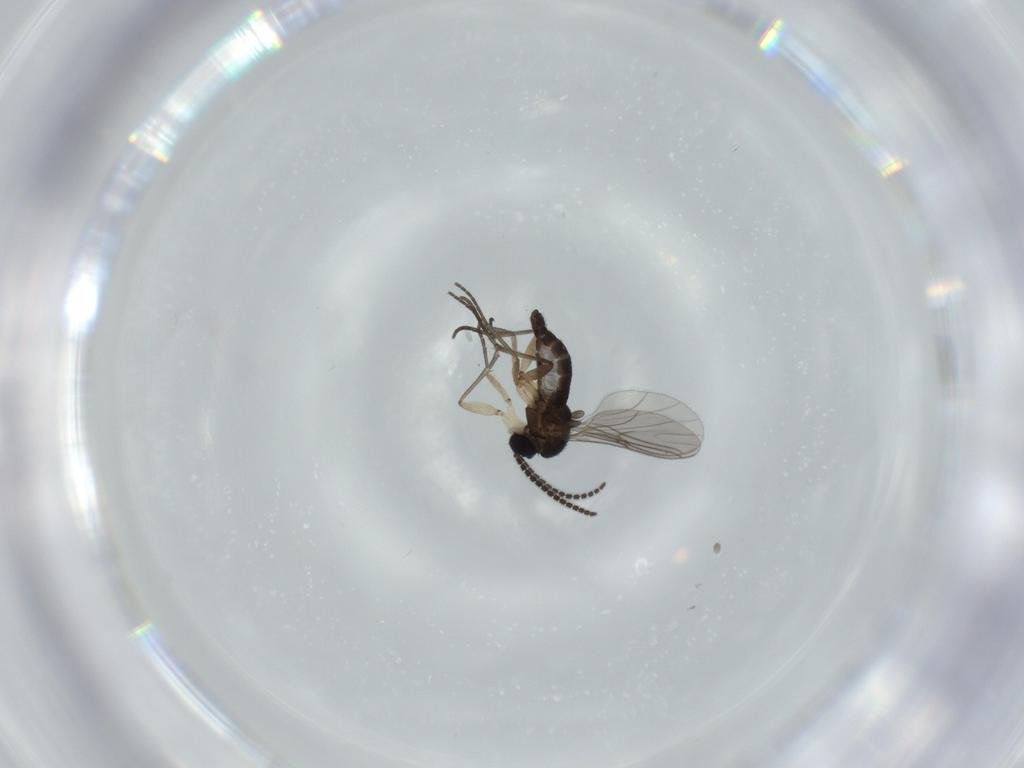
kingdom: Animalia
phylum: Arthropoda
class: Insecta
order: Diptera
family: Sciaridae
